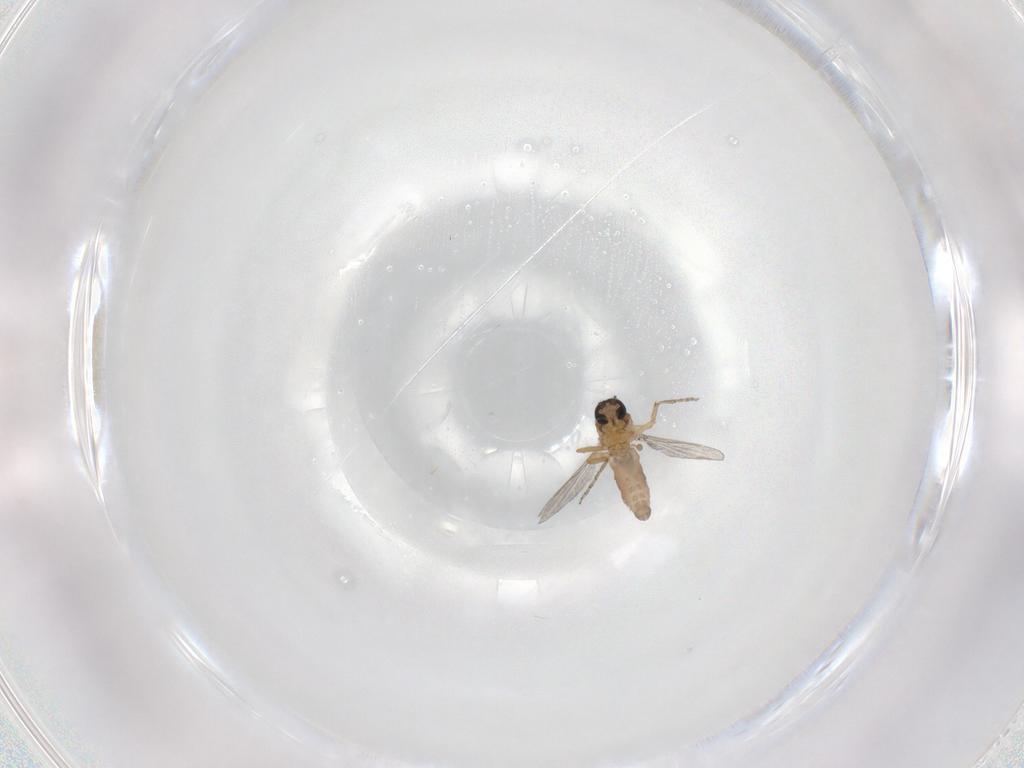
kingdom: Animalia
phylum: Arthropoda
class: Insecta
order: Diptera
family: Ceratopogonidae
